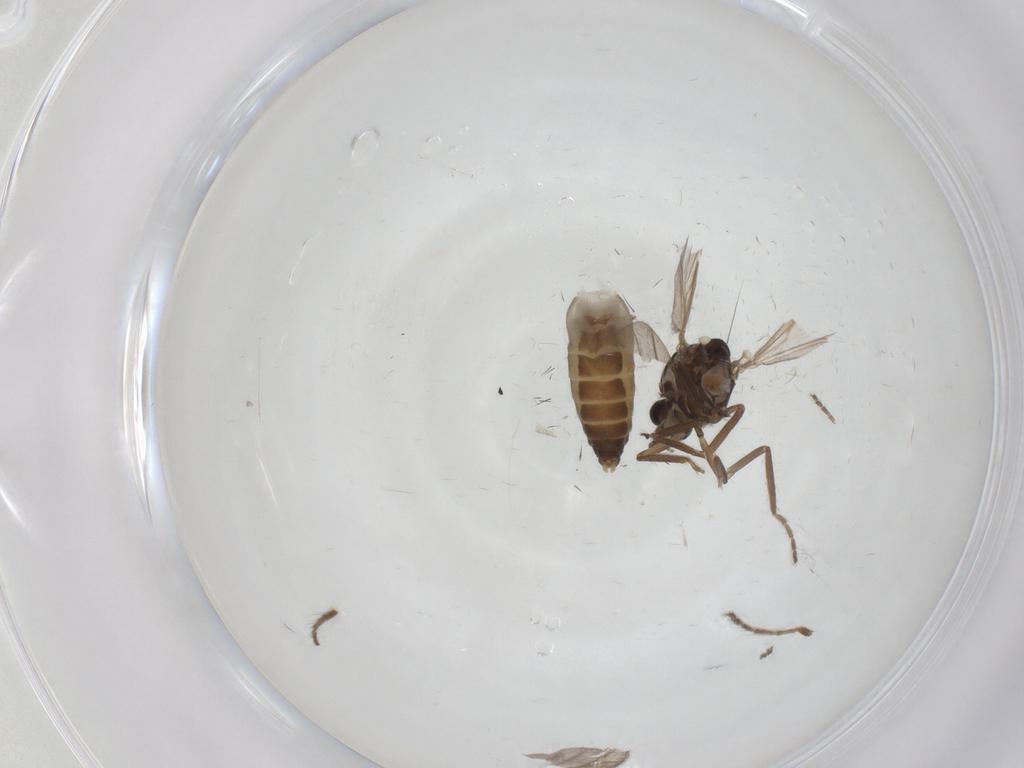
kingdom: Animalia
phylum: Arthropoda
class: Insecta
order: Diptera
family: Ceratopogonidae
